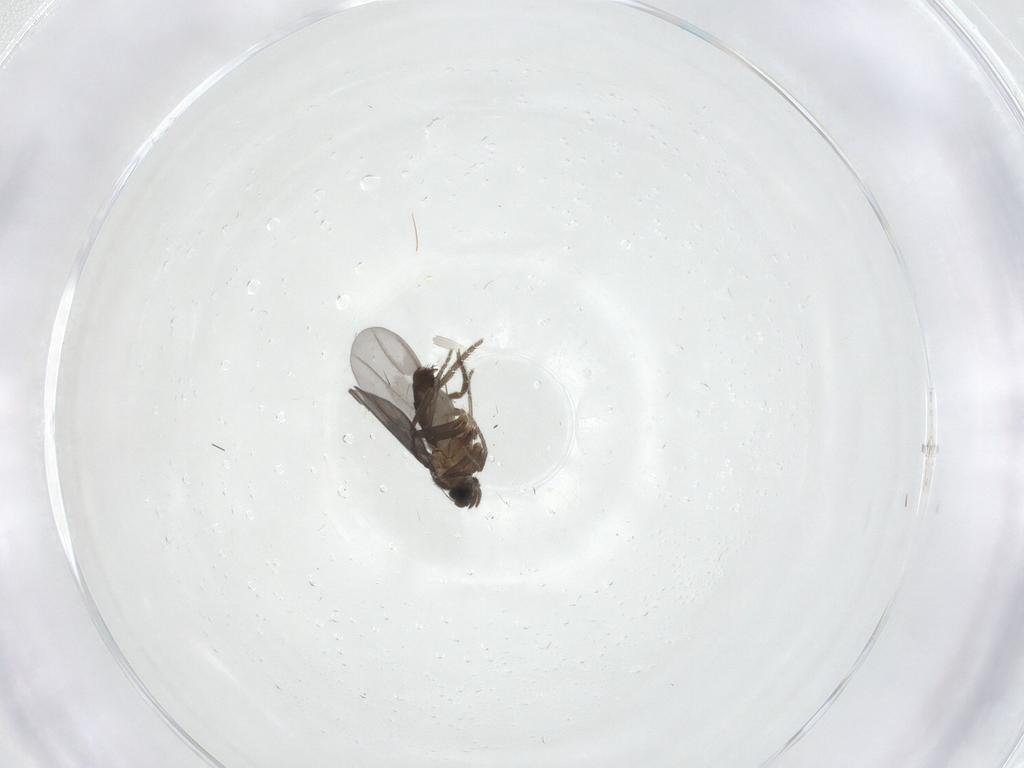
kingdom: Animalia
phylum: Arthropoda
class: Insecta
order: Diptera
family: Phoridae
